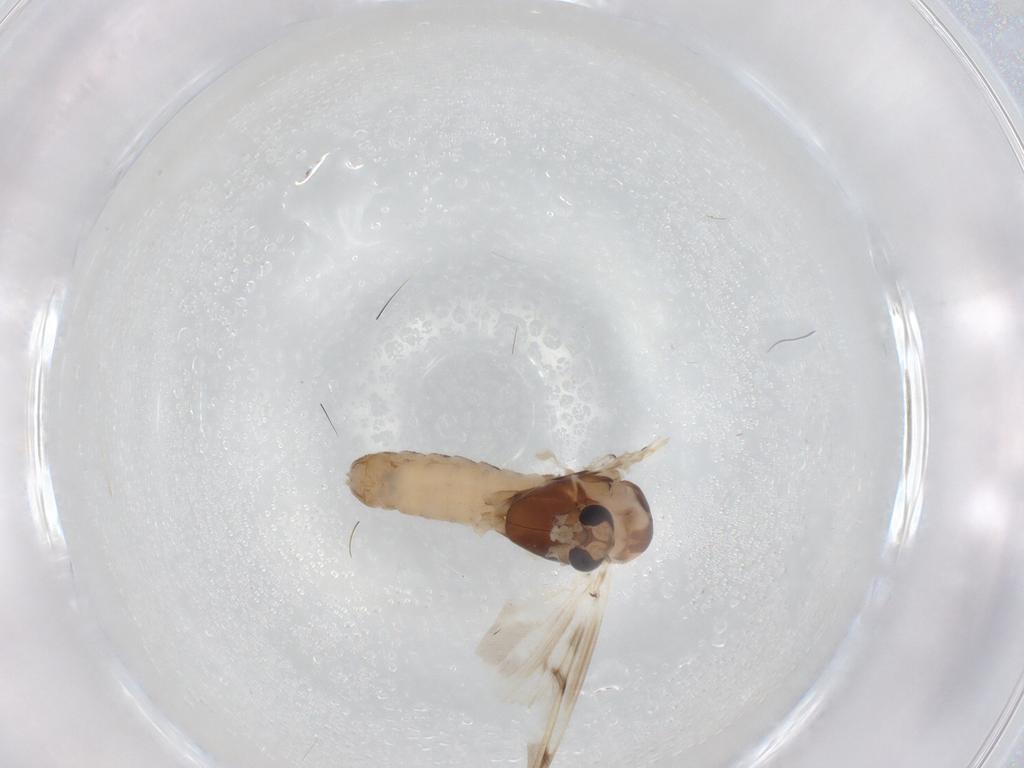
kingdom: Animalia
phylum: Arthropoda
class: Insecta
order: Diptera
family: Chironomidae
